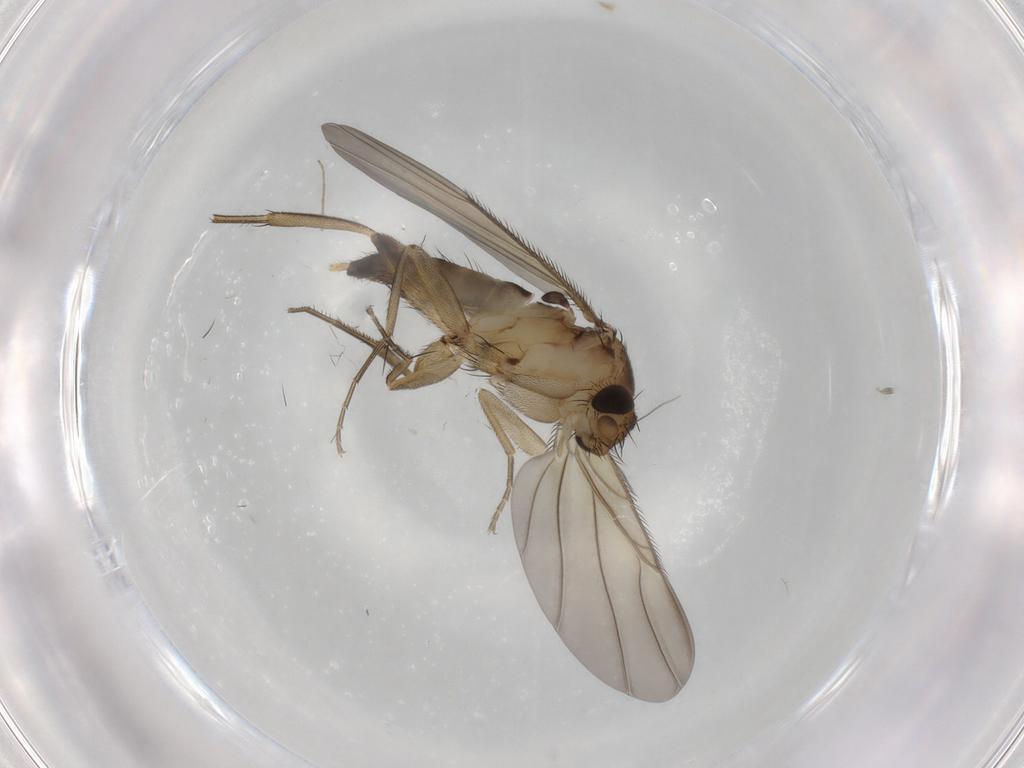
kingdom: Animalia
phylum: Arthropoda
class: Insecta
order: Diptera
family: Phoridae
